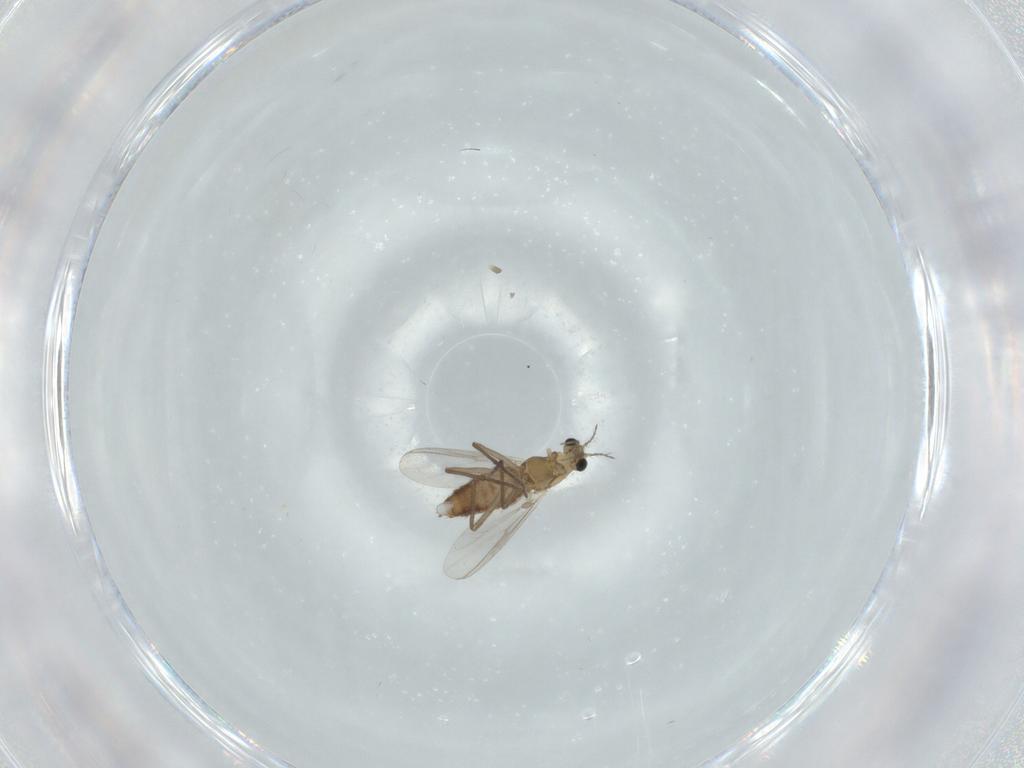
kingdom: Animalia
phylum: Arthropoda
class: Insecta
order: Diptera
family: Chironomidae
